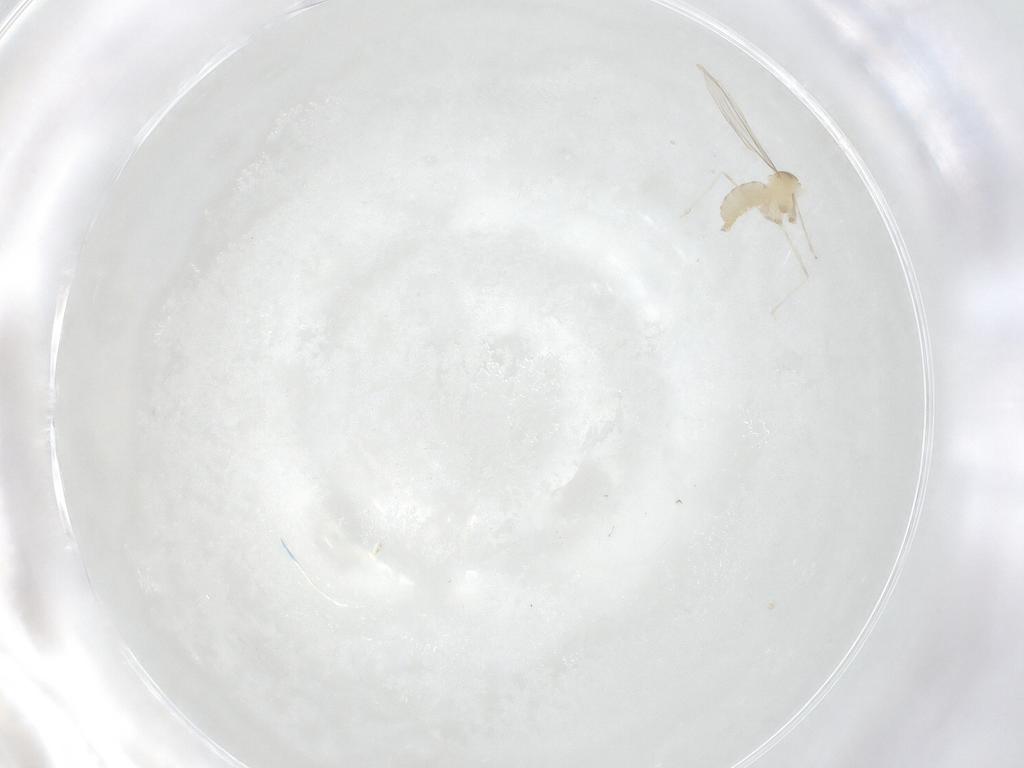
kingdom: Animalia
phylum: Arthropoda
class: Insecta
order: Diptera
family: Cecidomyiidae
